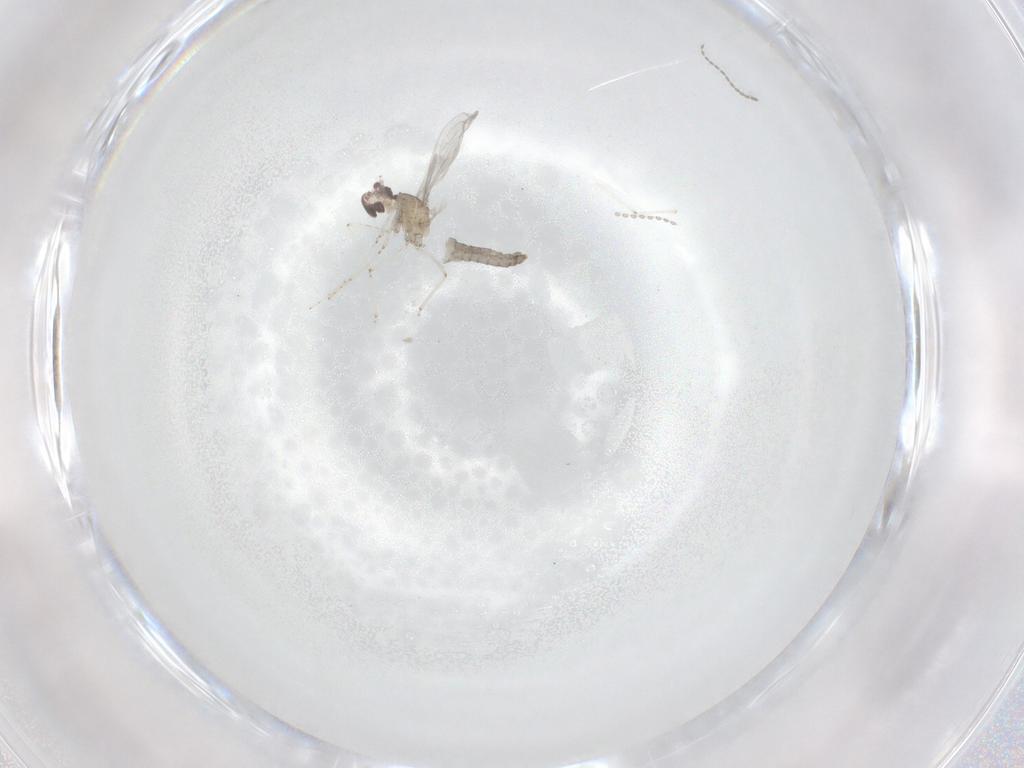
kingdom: Animalia
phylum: Arthropoda
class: Insecta
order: Diptera
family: Cecidomyiidae
